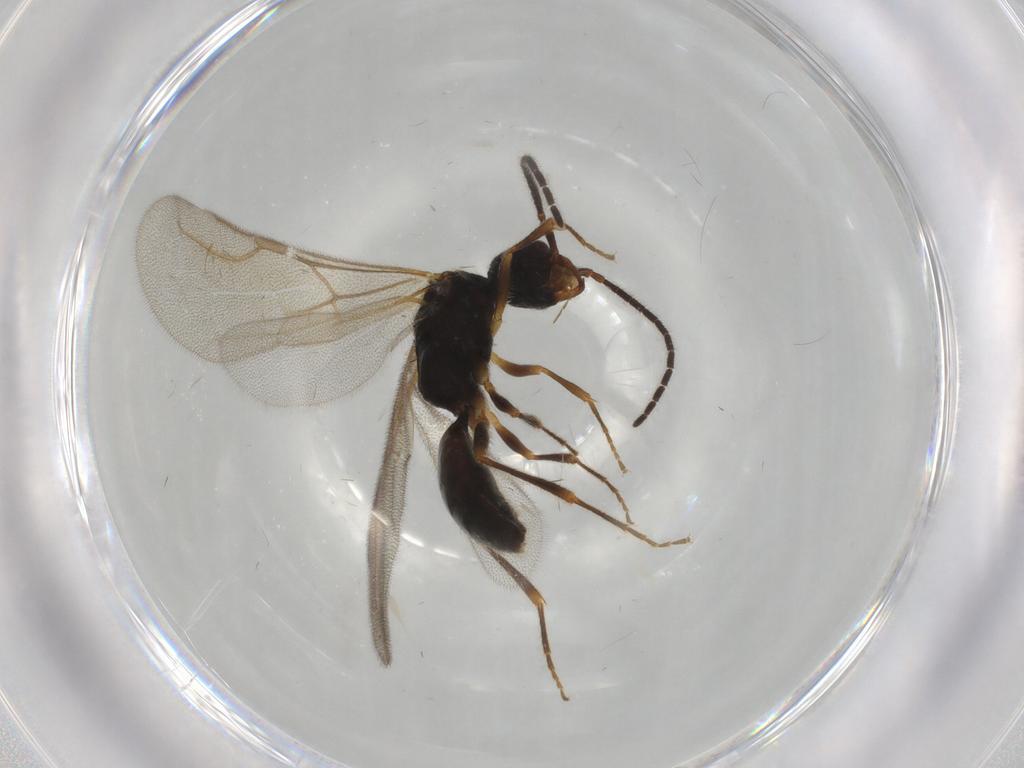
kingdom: Animalia
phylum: Arthropoda
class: Insecta
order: Hymenoptera
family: Bethylidae
